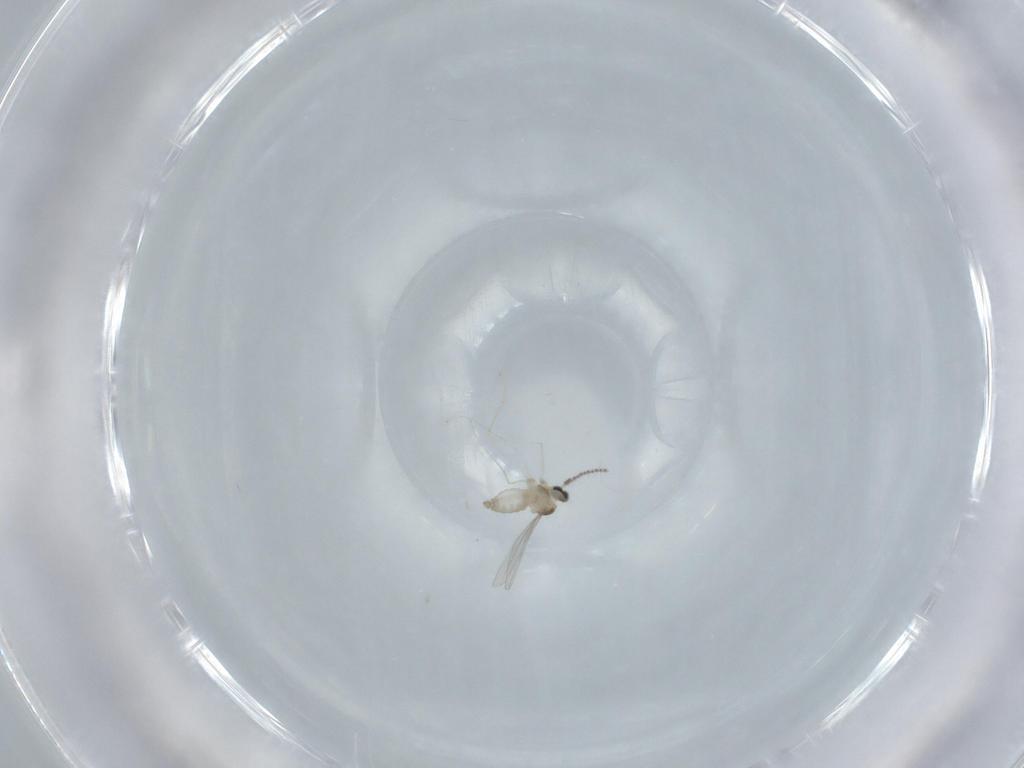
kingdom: Animalia
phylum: Arthropoda
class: Insecta
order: Diptera
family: Cecidomyiidae
